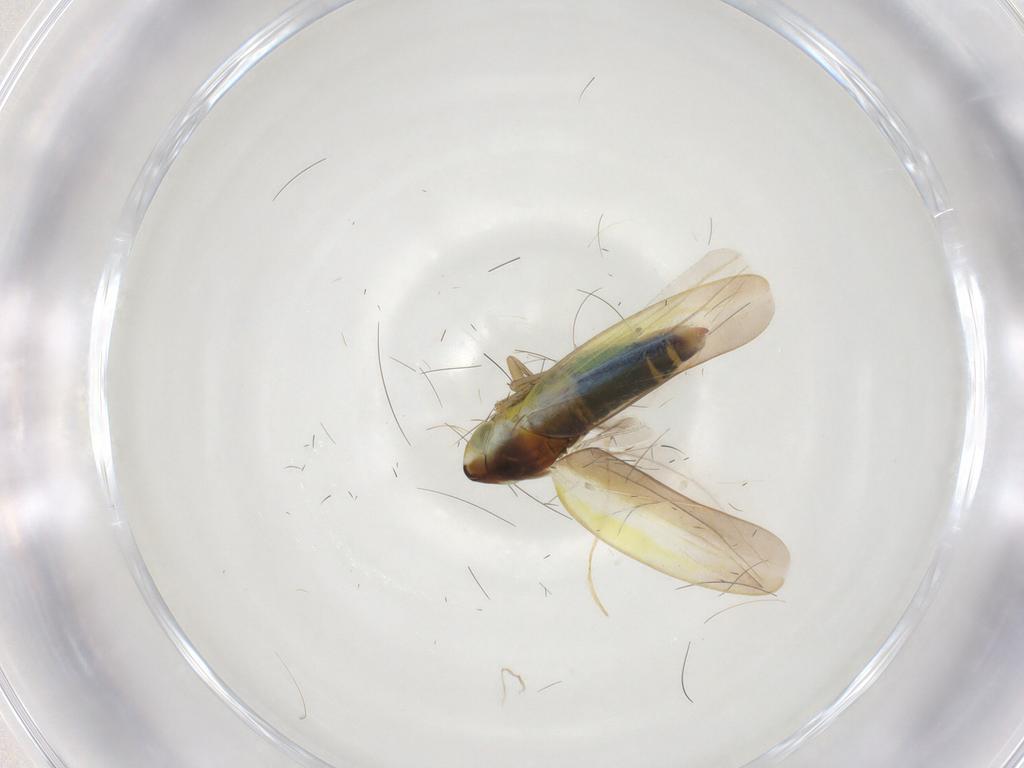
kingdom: Animalia
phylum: Arthropoda
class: Insecta
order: Hemiptera
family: Cicadellidae
